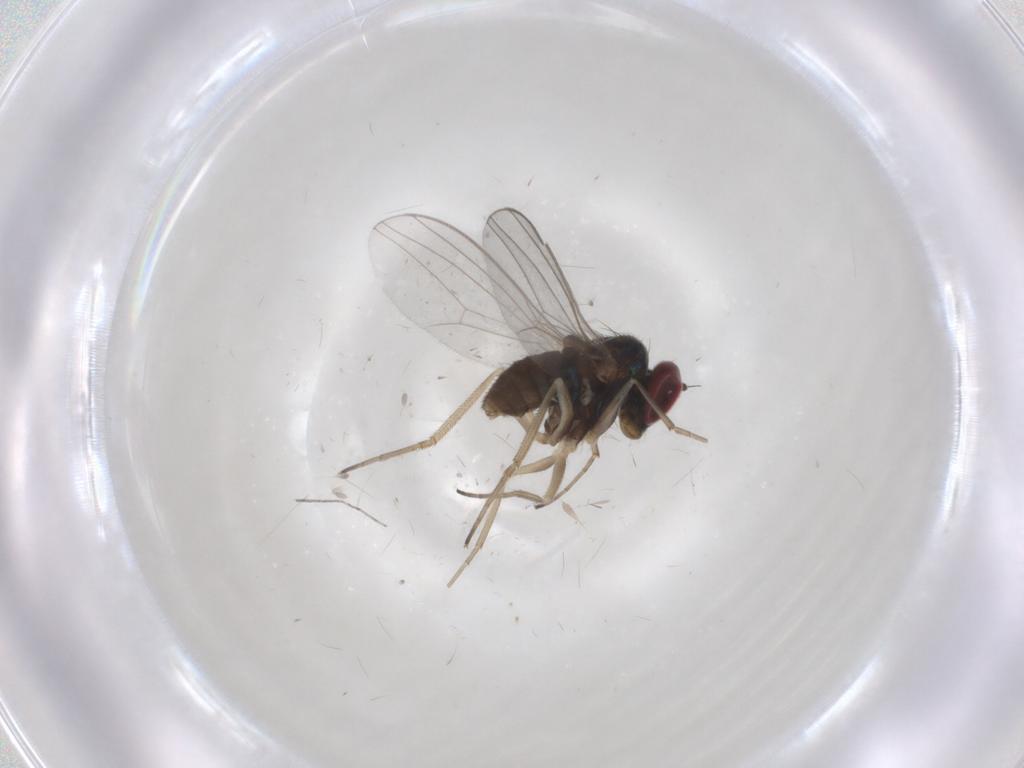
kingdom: Animalia
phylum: Arthropoda
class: Insecta
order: Diptera
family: Cecidomyiidae
